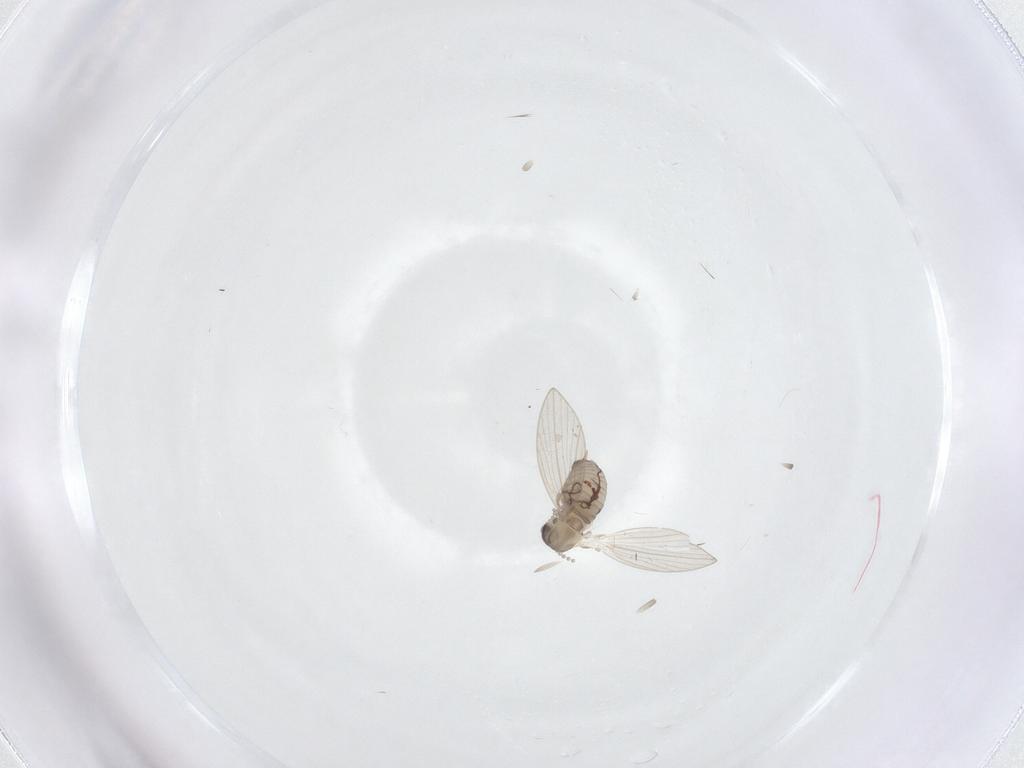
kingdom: Animalia
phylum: Arthropoda
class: Insecta
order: Diptera
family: Psychodidae
